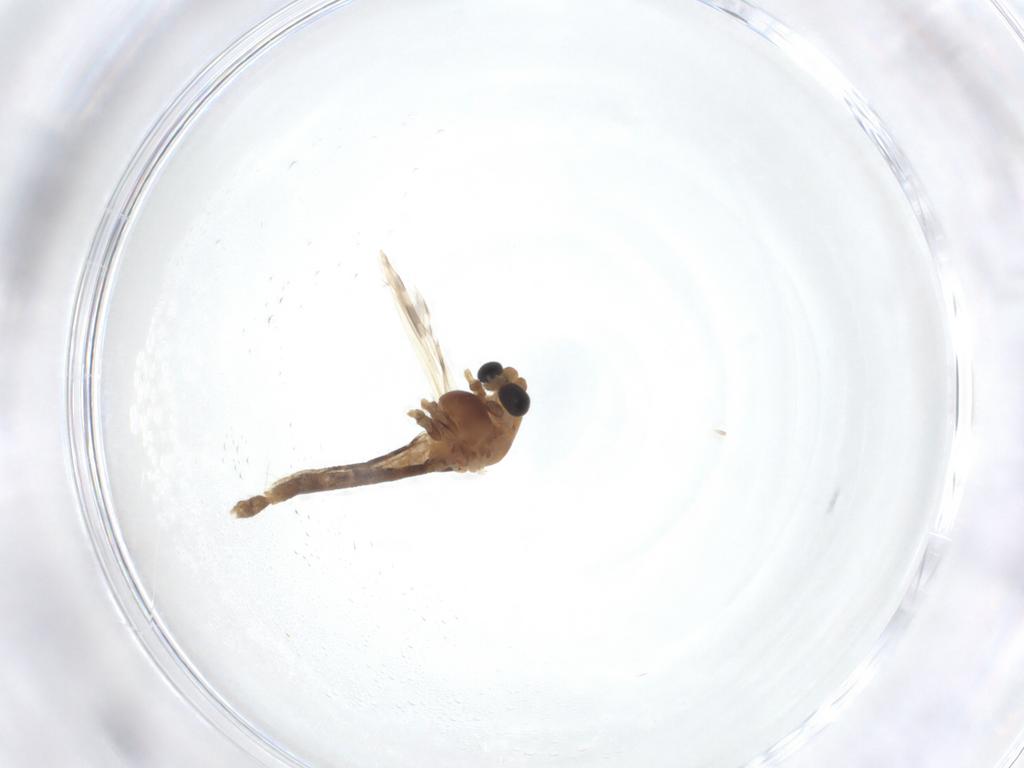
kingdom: Animalia
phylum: Arthropoda
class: Insecta
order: Diptera
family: Chironomidae
